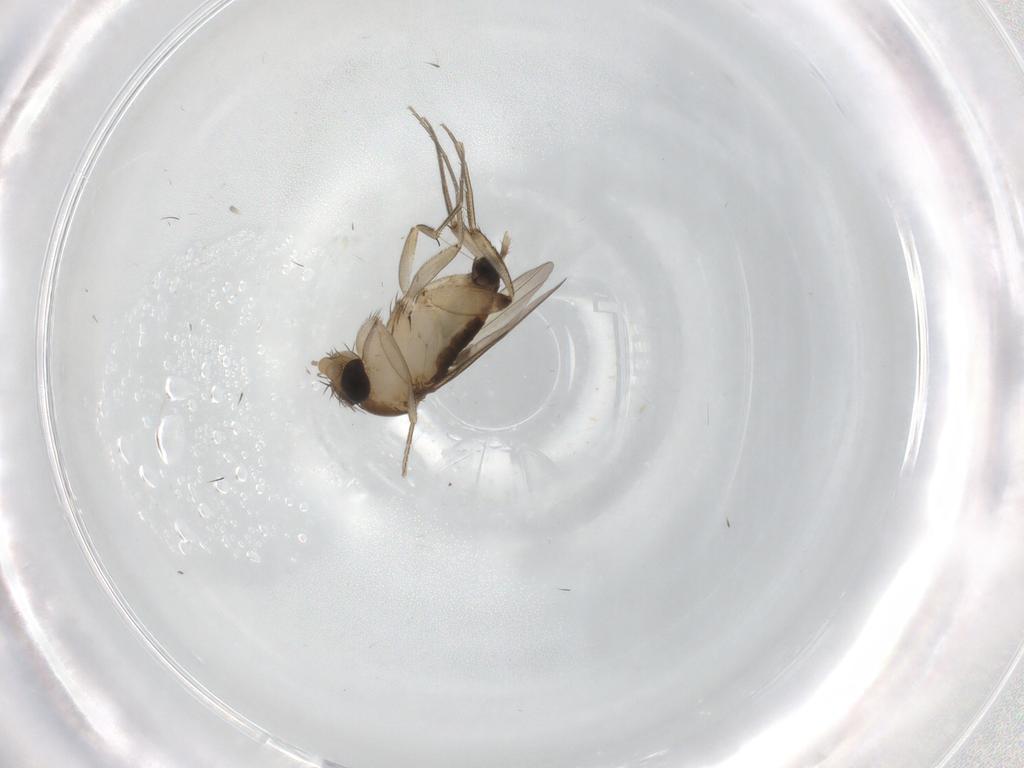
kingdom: Animalia
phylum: Arthropoda
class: Insecta
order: Diptera
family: Phoridae
